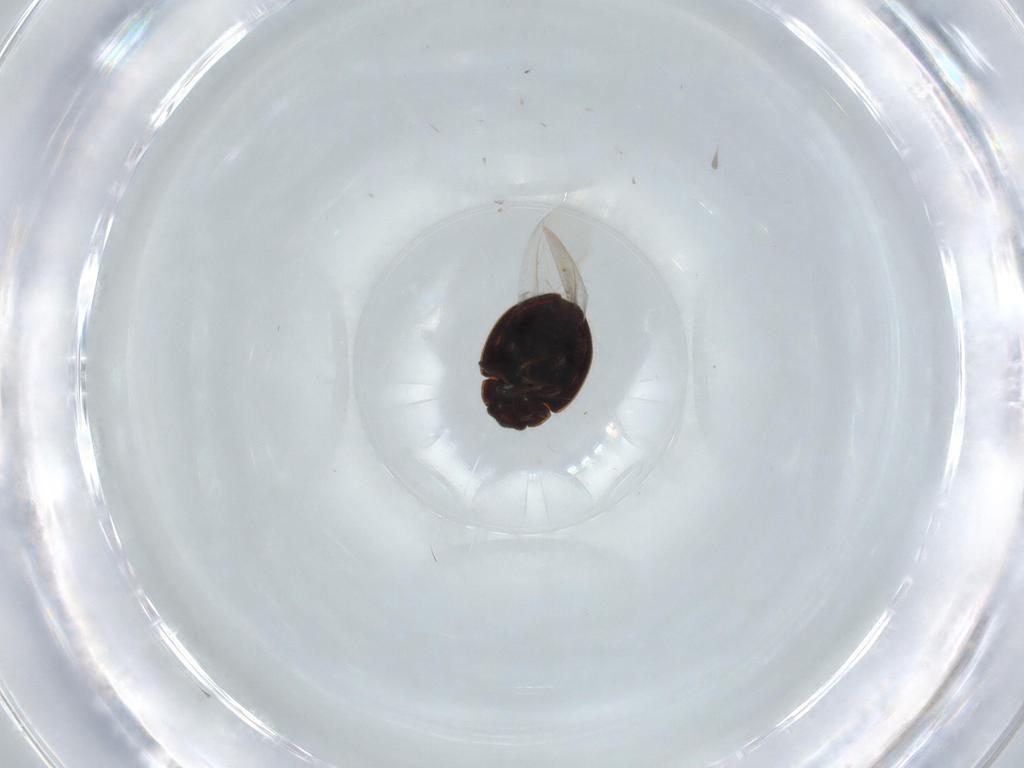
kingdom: Animalia
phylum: Arthropoda
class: Insecta
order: Coleoptera
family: Coccinellidae
